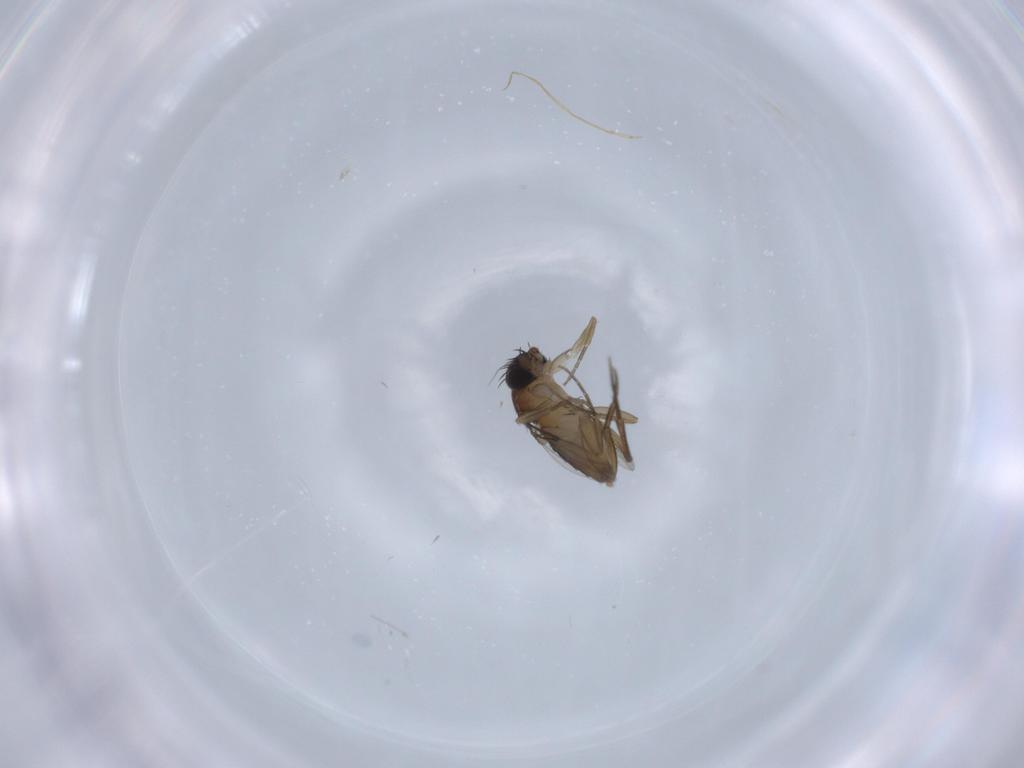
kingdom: Animalia
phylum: Arthropoda
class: Insecta
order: Diptera
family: Phoridae
